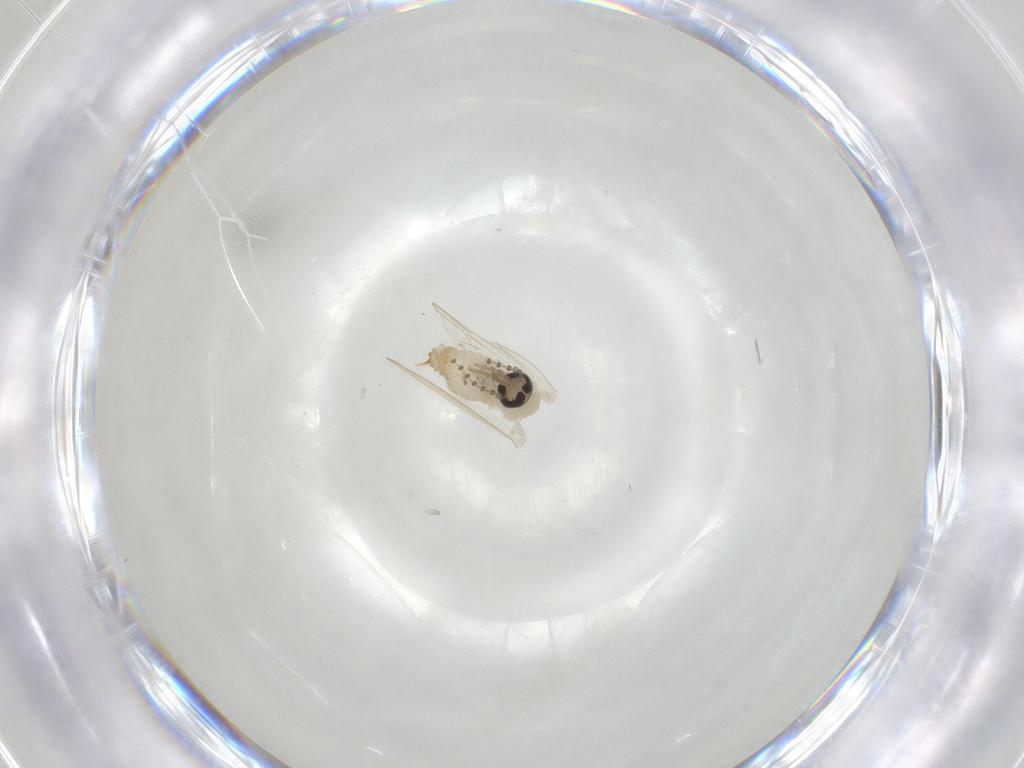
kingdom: Animalia
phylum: Arthropoda
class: Insecta
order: Diptera
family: Psychodidae
